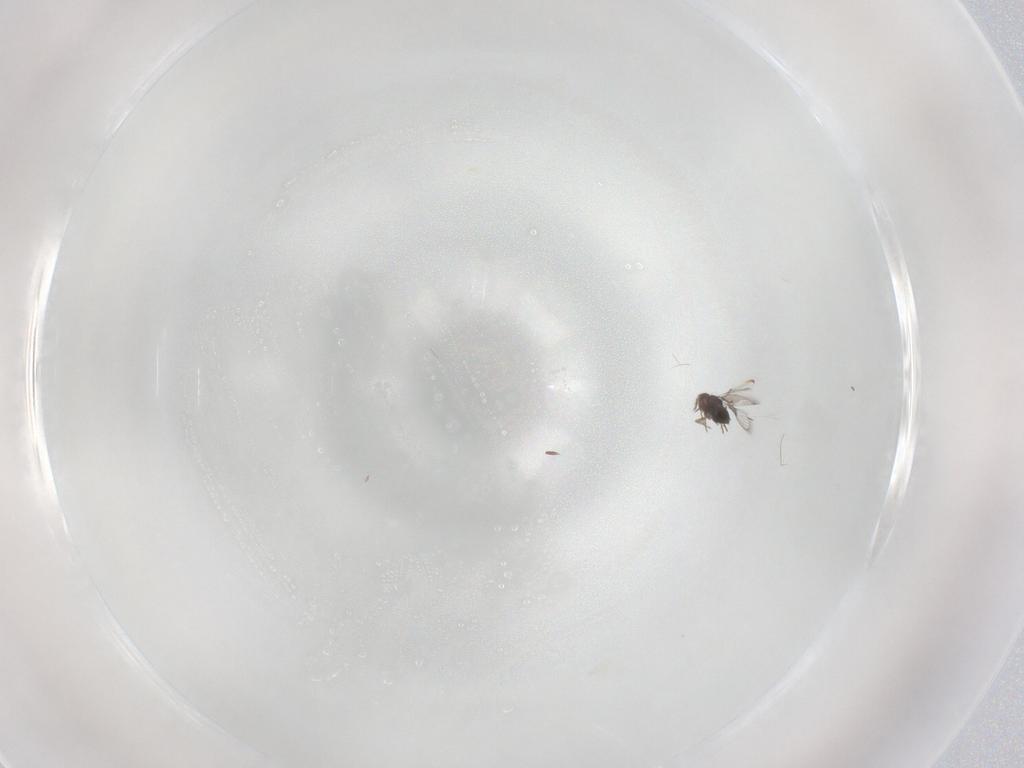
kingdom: Animalia
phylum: Arthropoda
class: Insecta
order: Hymenoptera
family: Trichogrammatidae
